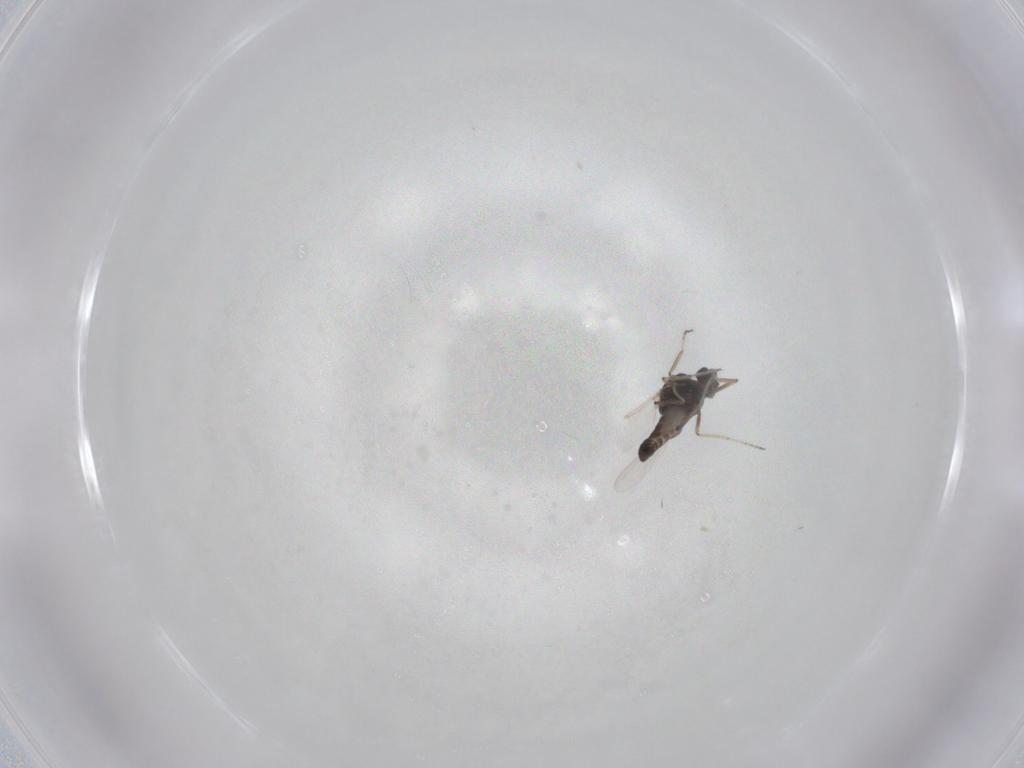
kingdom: Animalia
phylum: Arthropoda
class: Insecta
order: Diptera
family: Ceratopogonidae
